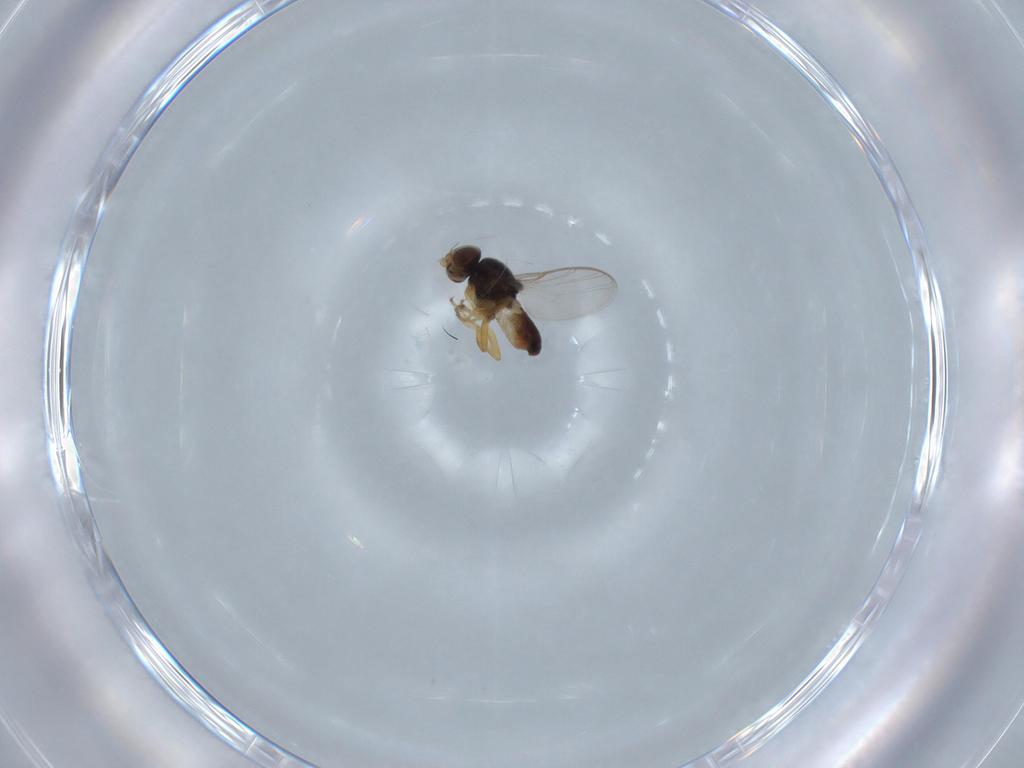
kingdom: Animalia
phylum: Arthropoda
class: Insecta
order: Diptera
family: Chloropidae
